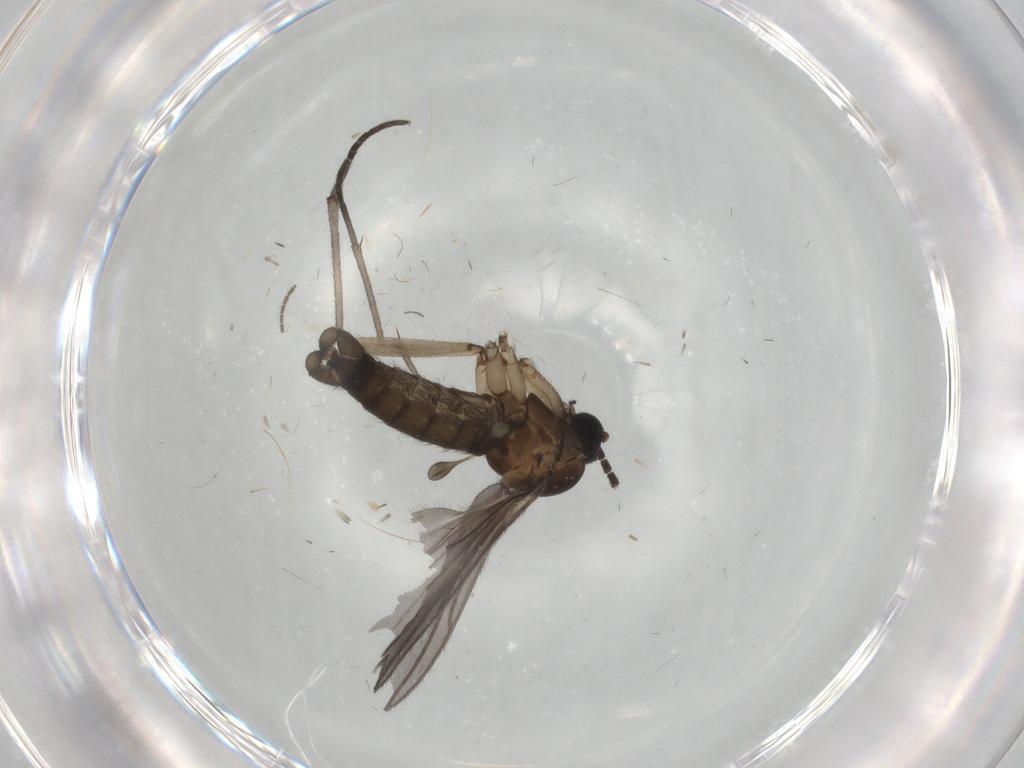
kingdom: Animalia
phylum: Arthropoda
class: Insecta
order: Diptera
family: Sciaridae
